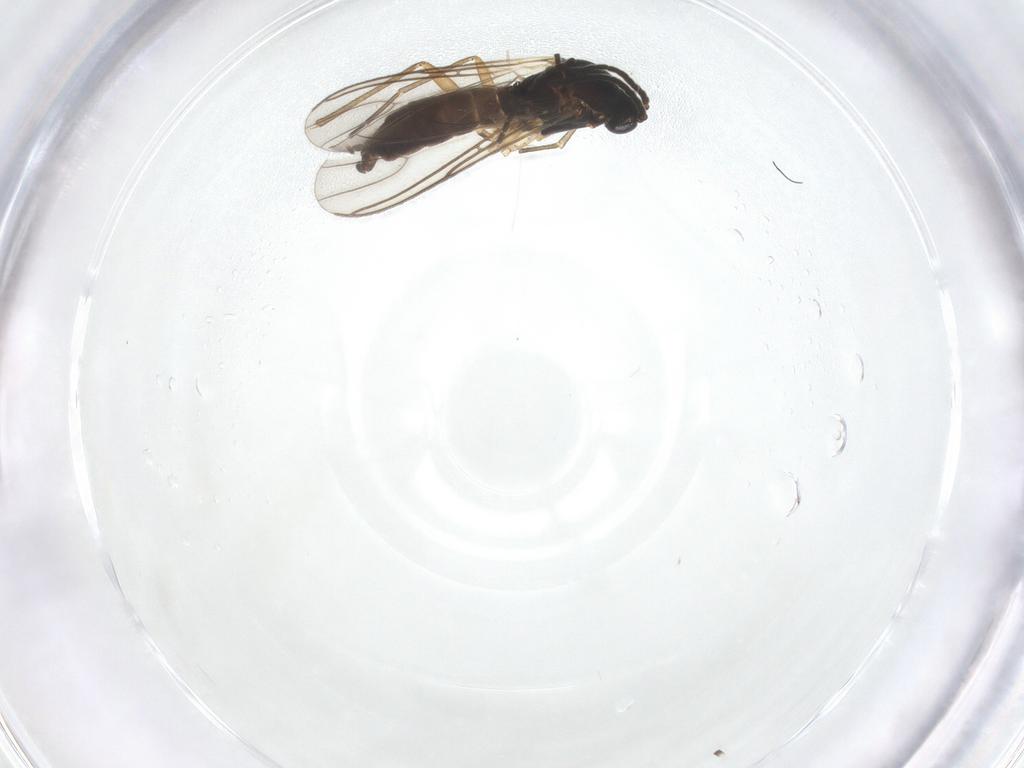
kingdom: Animalia
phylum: Arthropoda
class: Insecta
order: Diptera
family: Sciaridae
